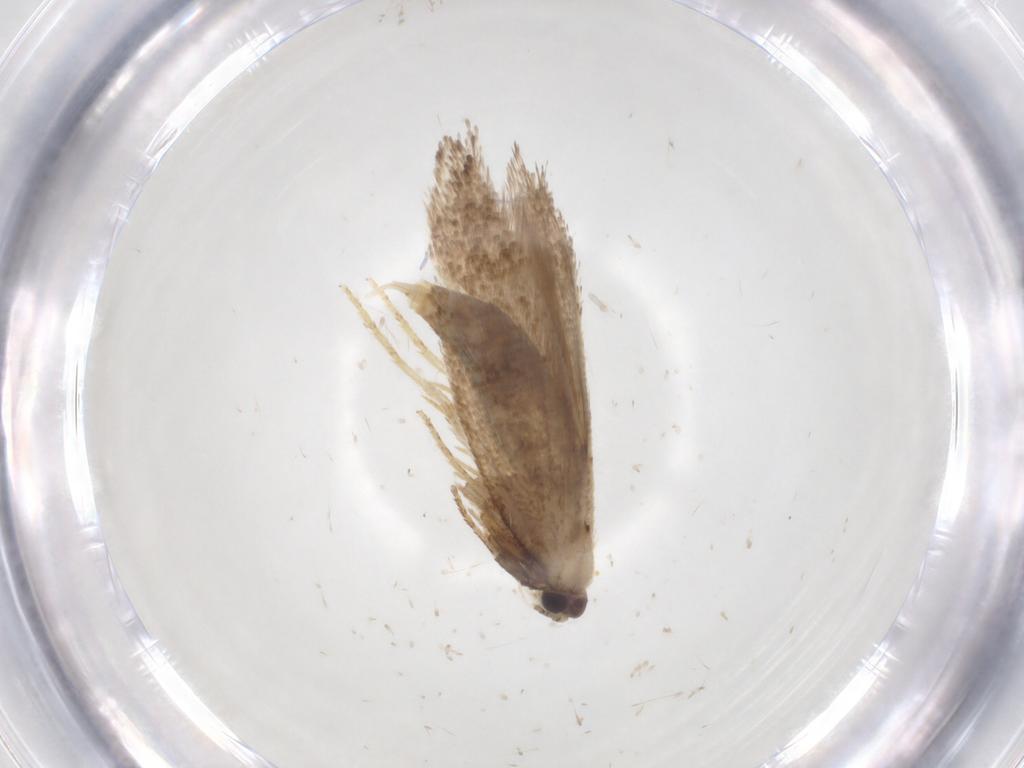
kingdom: Animalia
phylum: Arthropoda
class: Insecta
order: Lepidoptera
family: Nepticulidae
